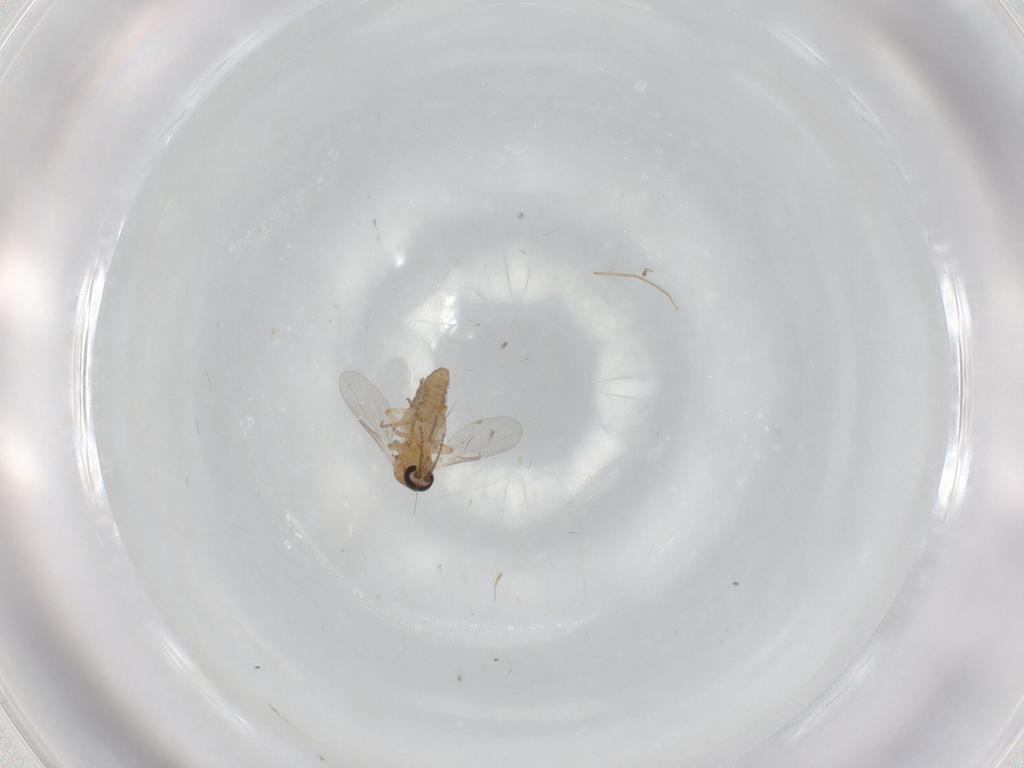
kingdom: Animalia
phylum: Arthropoda
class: Insecta
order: Diptera
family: Ceratopogonidae
